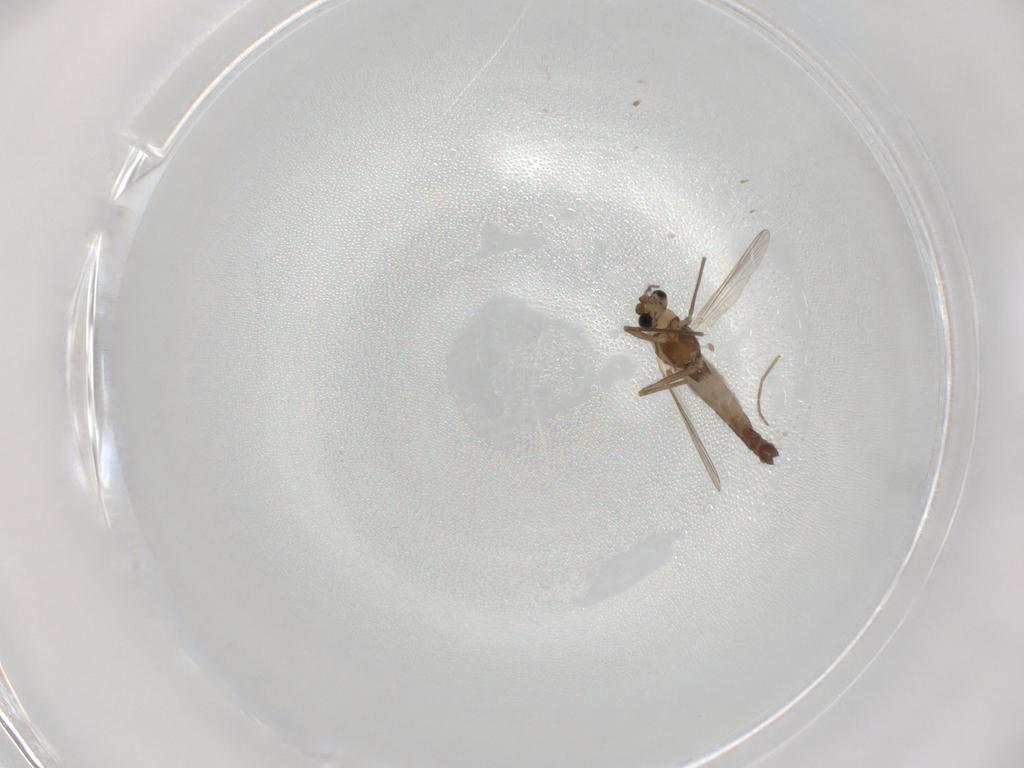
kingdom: Animalia
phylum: Arthropoda
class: Insecta
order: Diptera
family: Chironomidae
